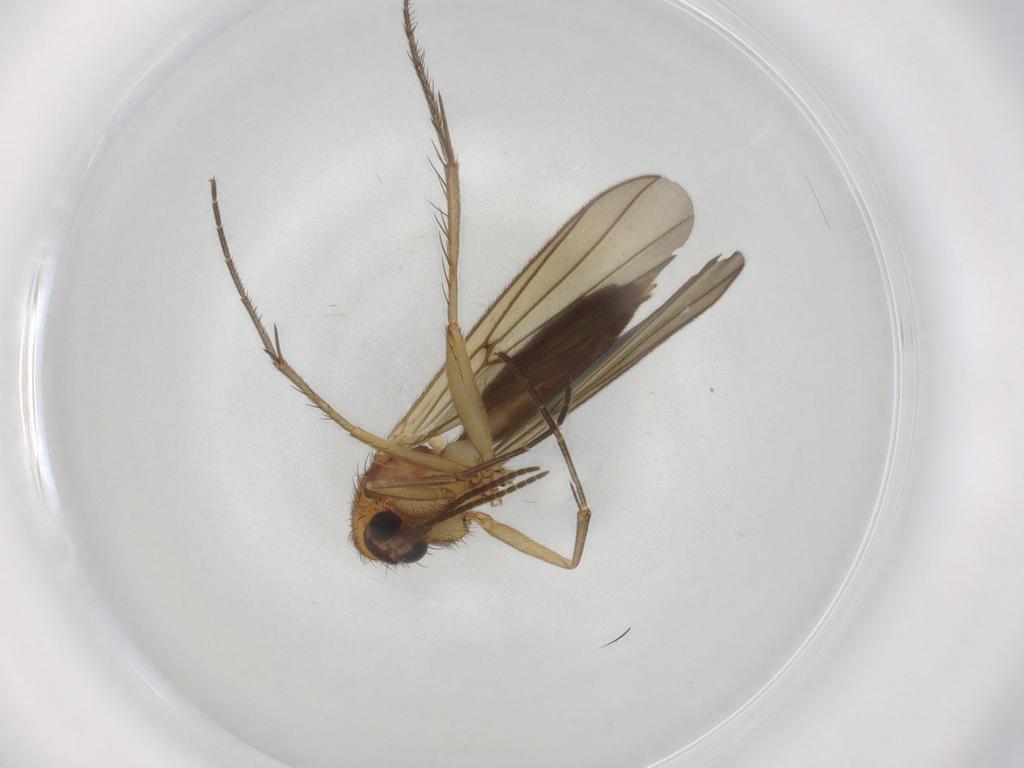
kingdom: Animalia
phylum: Arthropoda
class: Insecta
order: Diptera
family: Mycetophilidae
